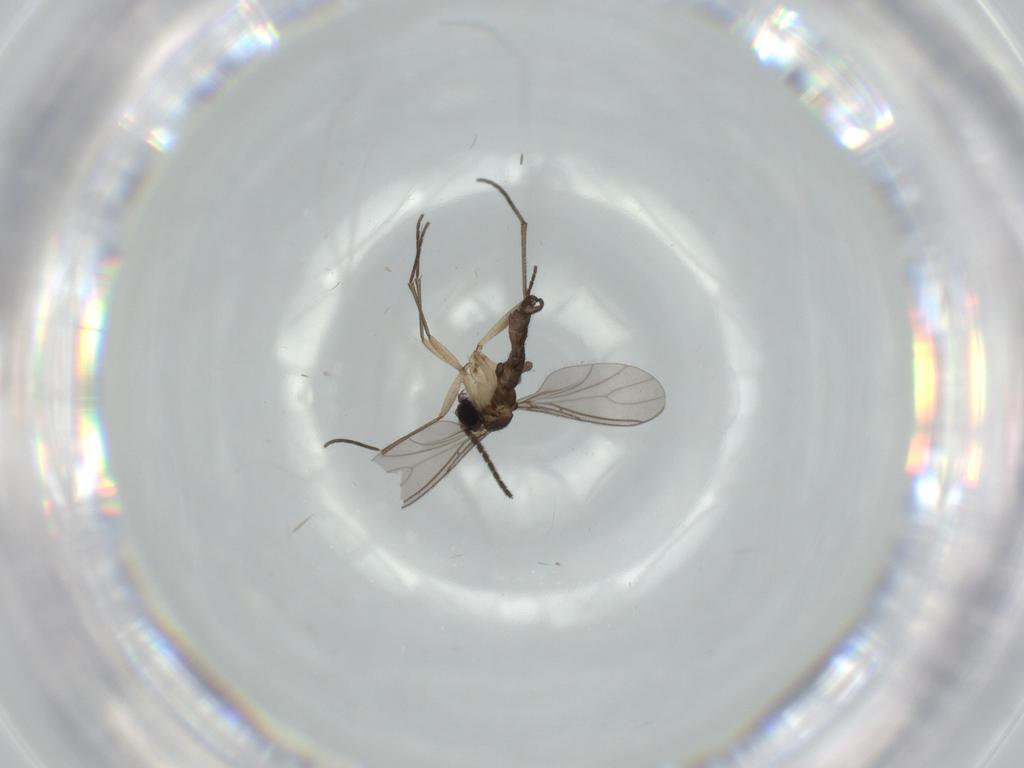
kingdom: Animalia
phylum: Arthropoda
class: Insecta
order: Diptera
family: Sciaridae
